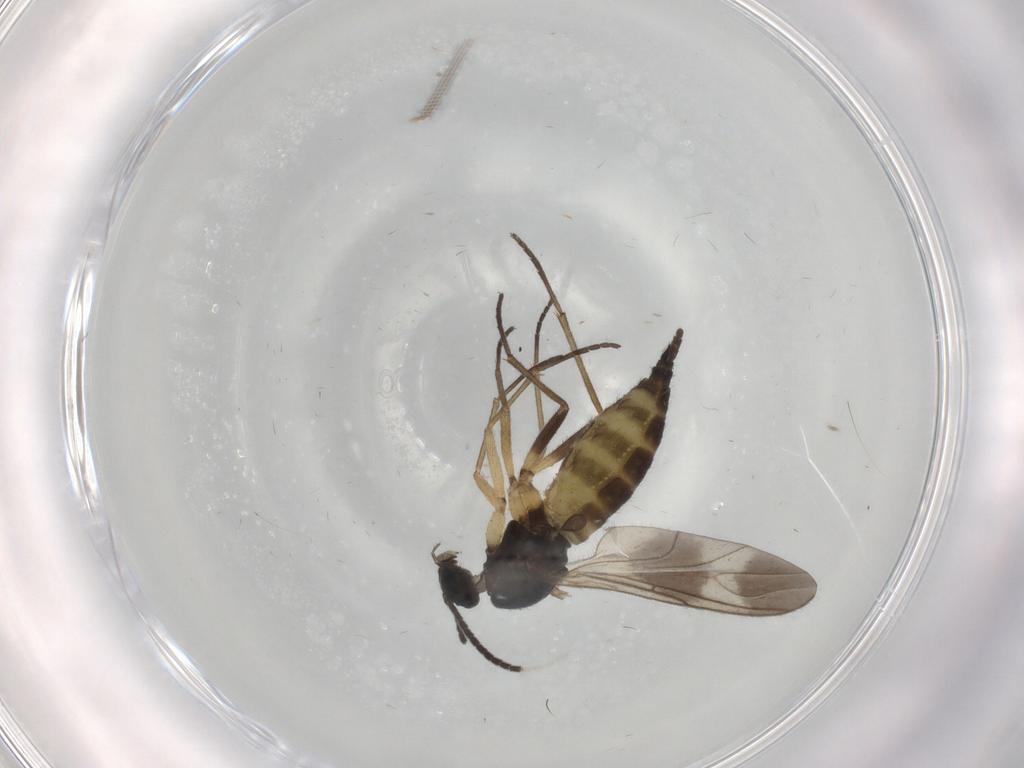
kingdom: Animalia
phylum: Arthropoda
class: Insecta
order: Diptera
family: Sciaridae
